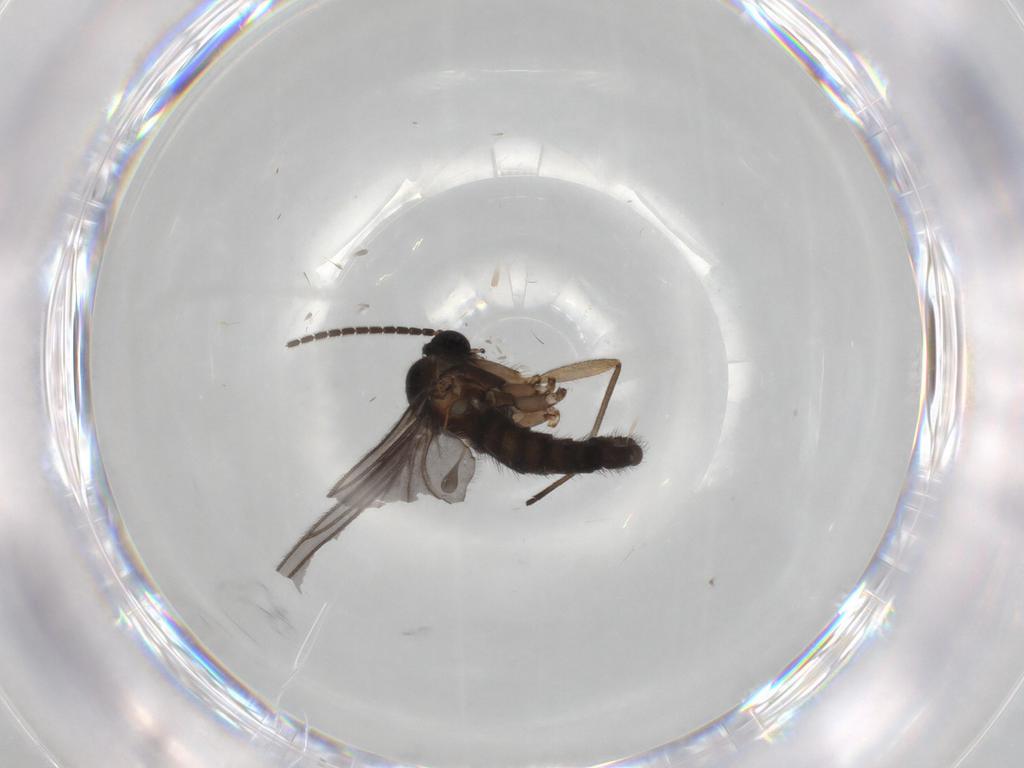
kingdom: Animalia
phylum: Arthropoda
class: Insecta
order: Diptera
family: Sciaridae
